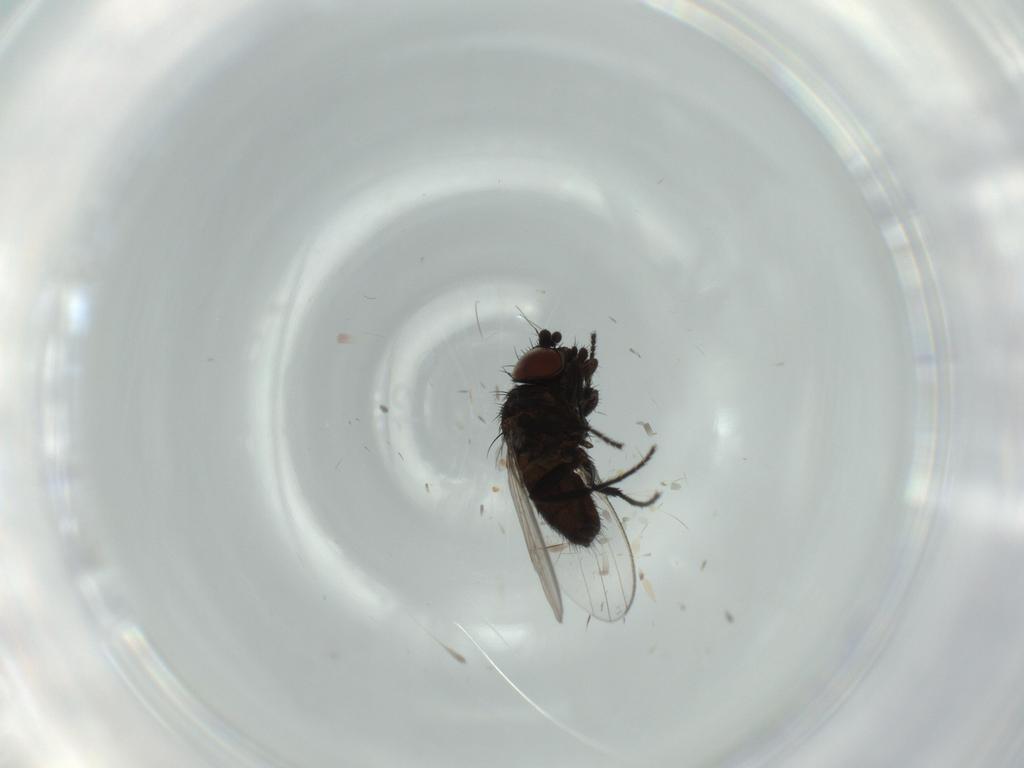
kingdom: Animalia
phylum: Arthropoda
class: Insecta
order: Diptera
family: Milichiidae
